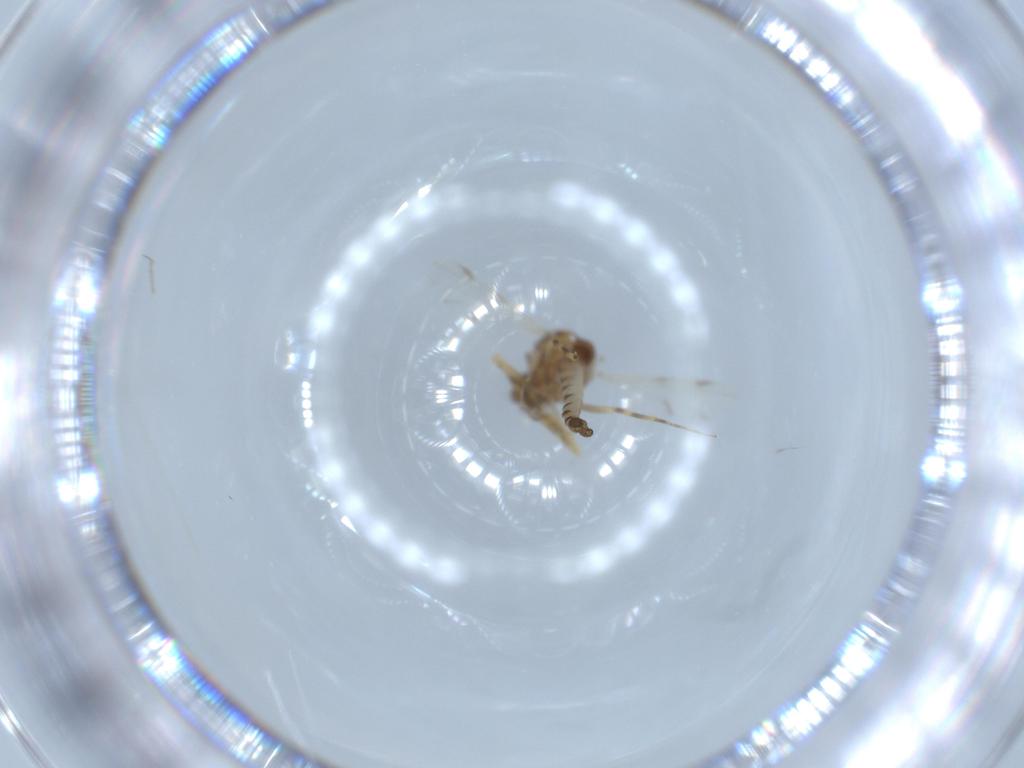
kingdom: Animalia
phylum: Arthropoda
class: Insecta
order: Diptera
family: Ceratopogonidae
